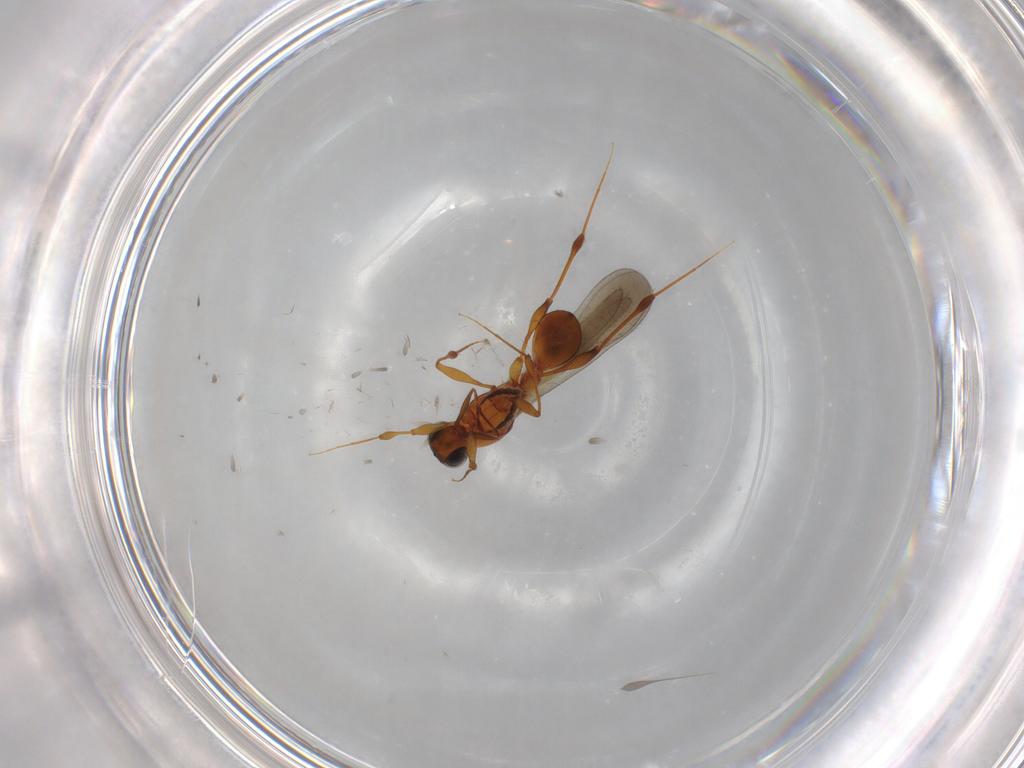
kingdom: Animalia
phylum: Arthropoda
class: Insecta
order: Hymenoptera
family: Platygastridae
